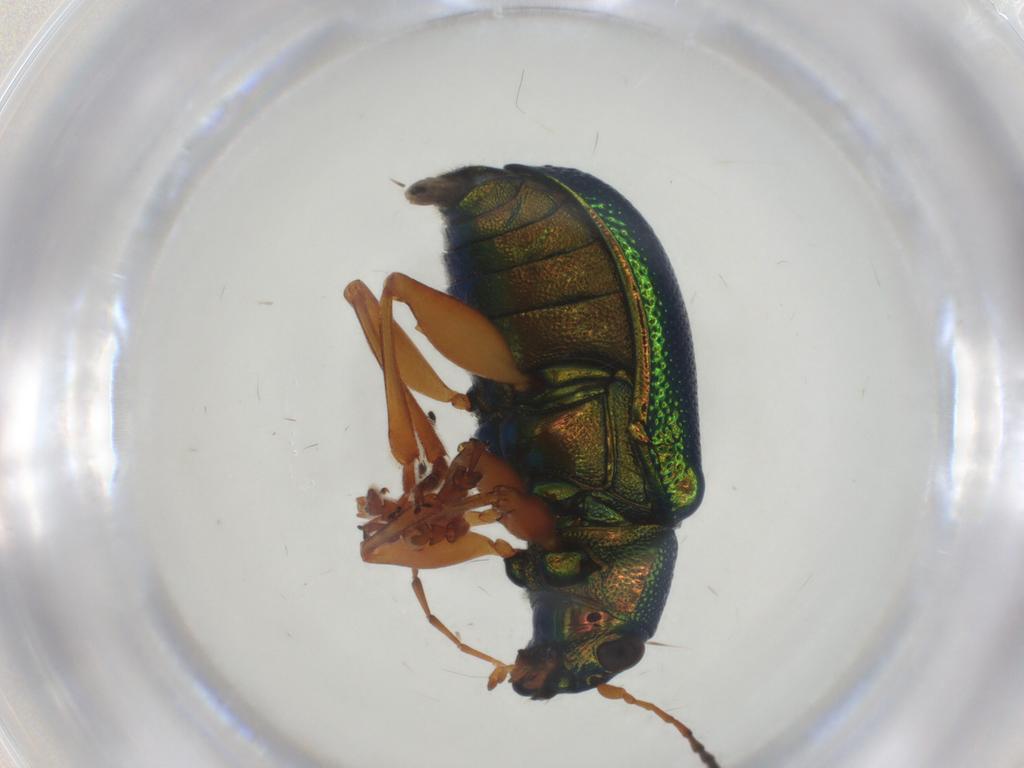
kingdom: Animalia
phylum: Arthropoda
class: Insecta
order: Coleoptera
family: Chrysomelidae
